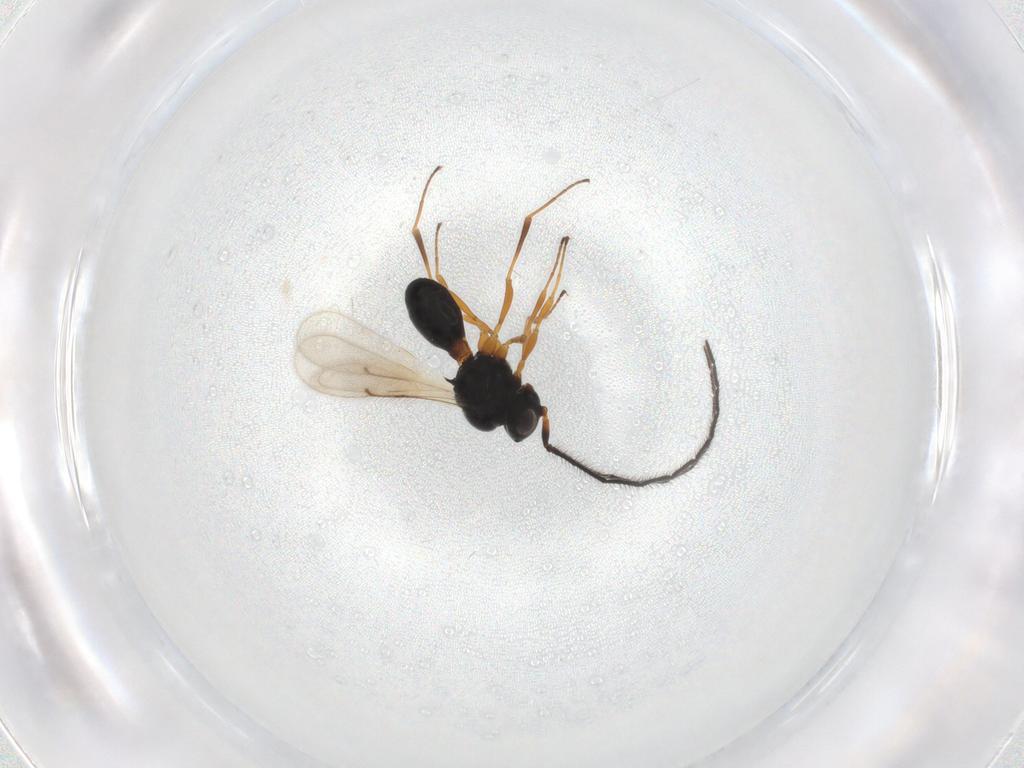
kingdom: Animalia
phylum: Arthropoda
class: Insecta
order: Hymenoptera
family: Scelionidae
